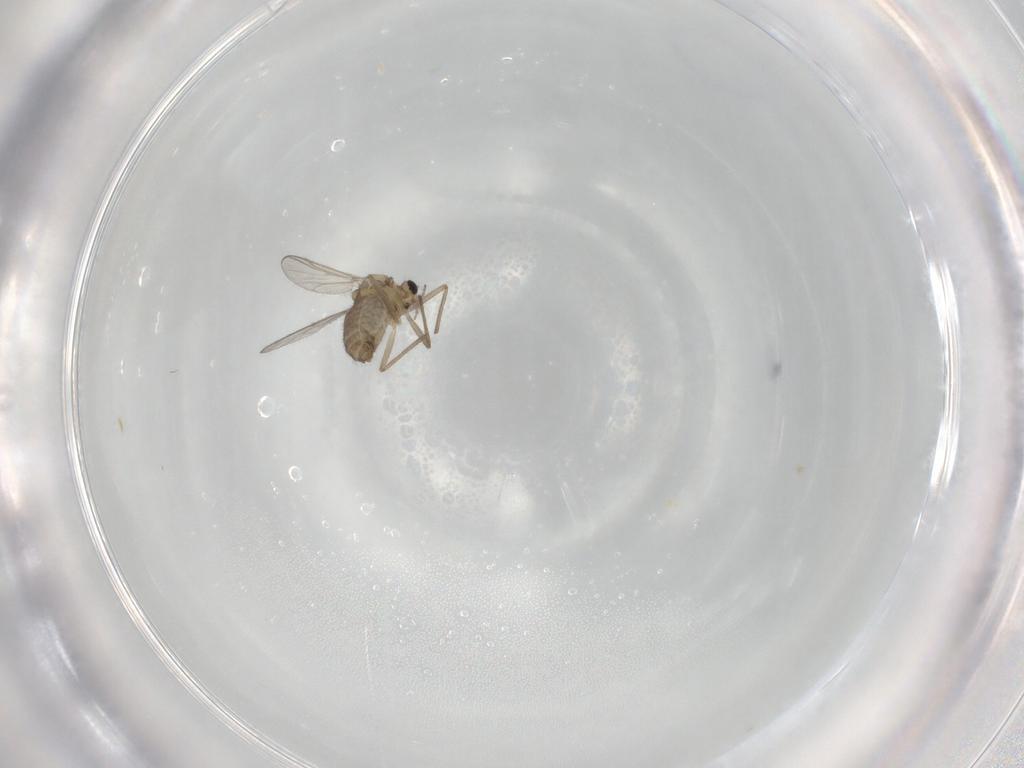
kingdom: Animalia
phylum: Arthropoda
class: Insecta
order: Diptera
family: Chironomidae
